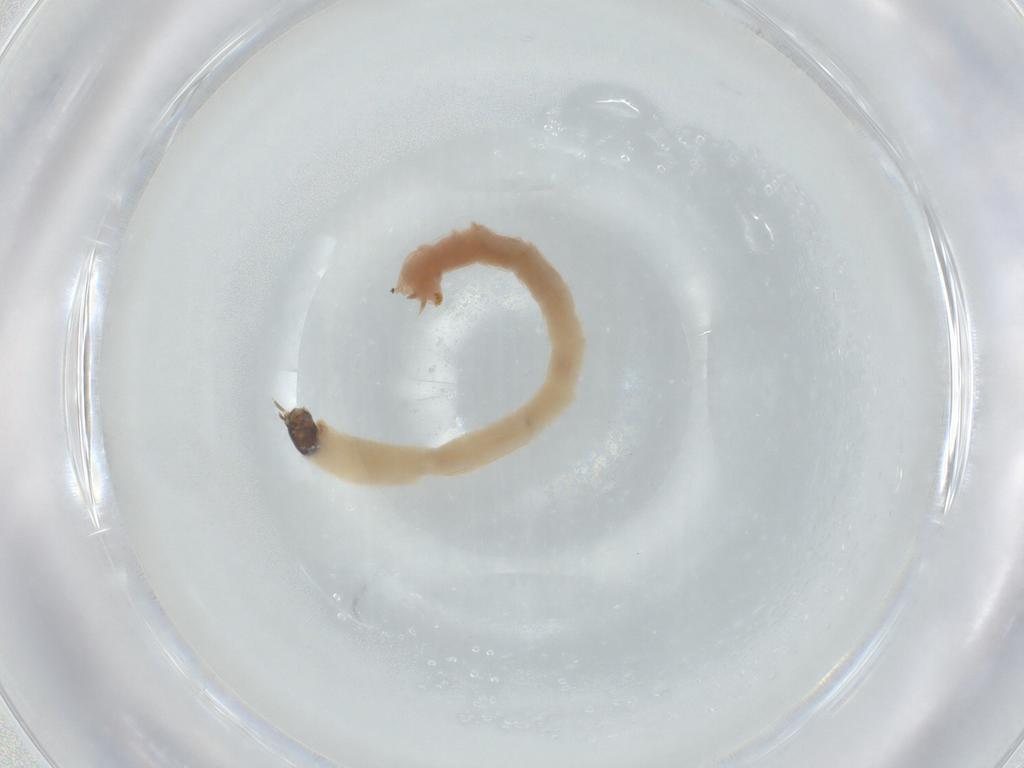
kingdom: Animalia
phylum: Arthropoda
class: Insecta
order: Diptera
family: Chironomidae
